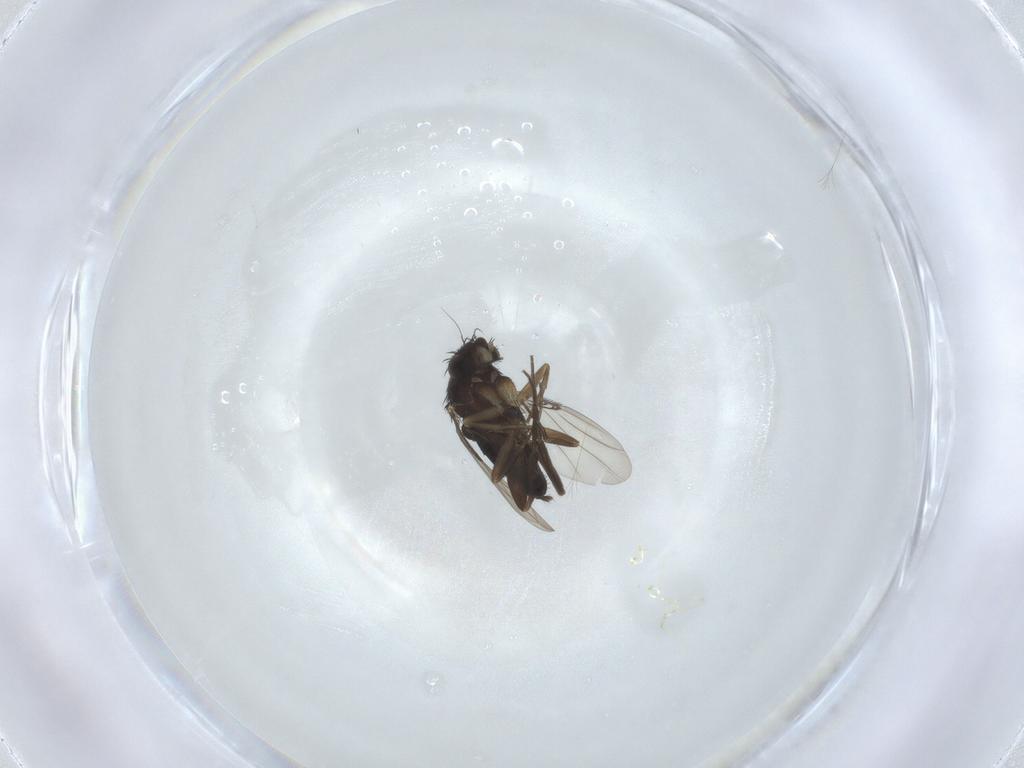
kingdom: Animalia
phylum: Arthropoda
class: Insecta
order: Diptera
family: Phoridae
